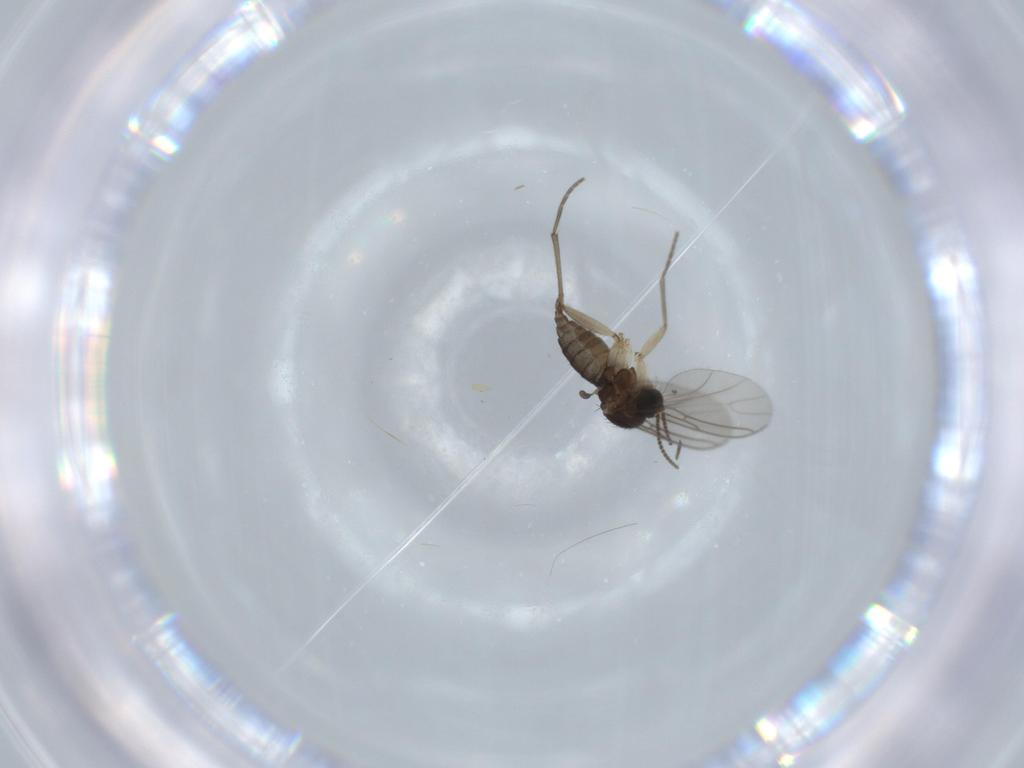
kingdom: Animalia
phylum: Arthropoda
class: Insecta
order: Diptera
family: Sciaridae
